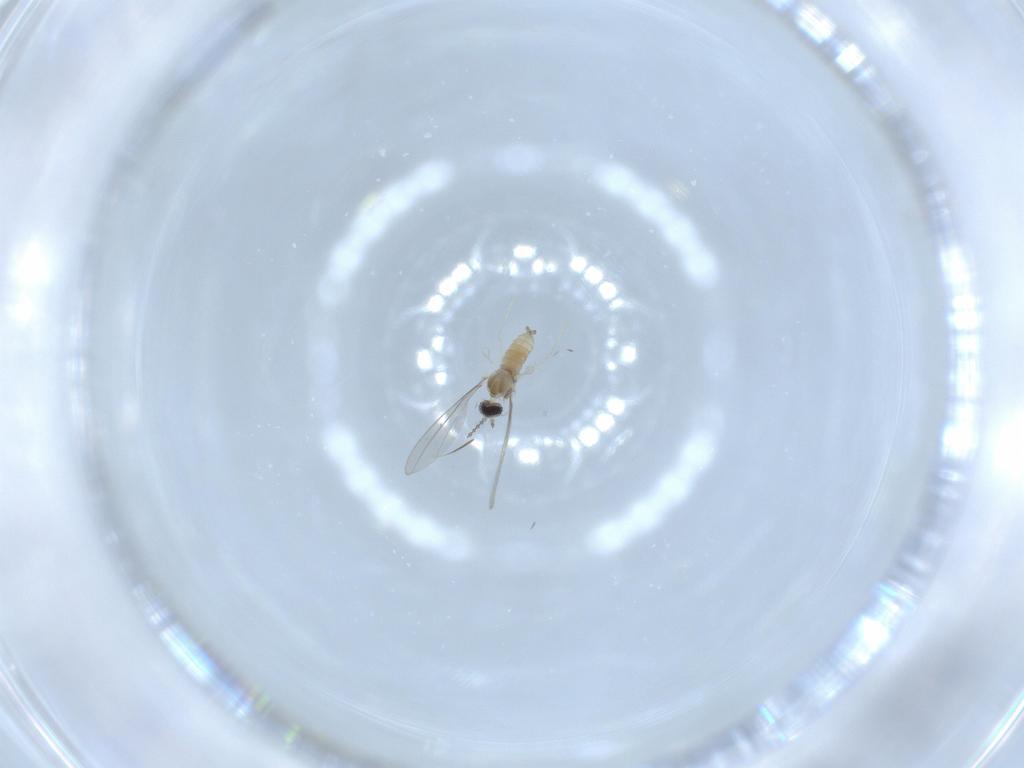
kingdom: Animalia
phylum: Arthropoda
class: Insecta
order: Diptera
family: Cecidomyiidae
